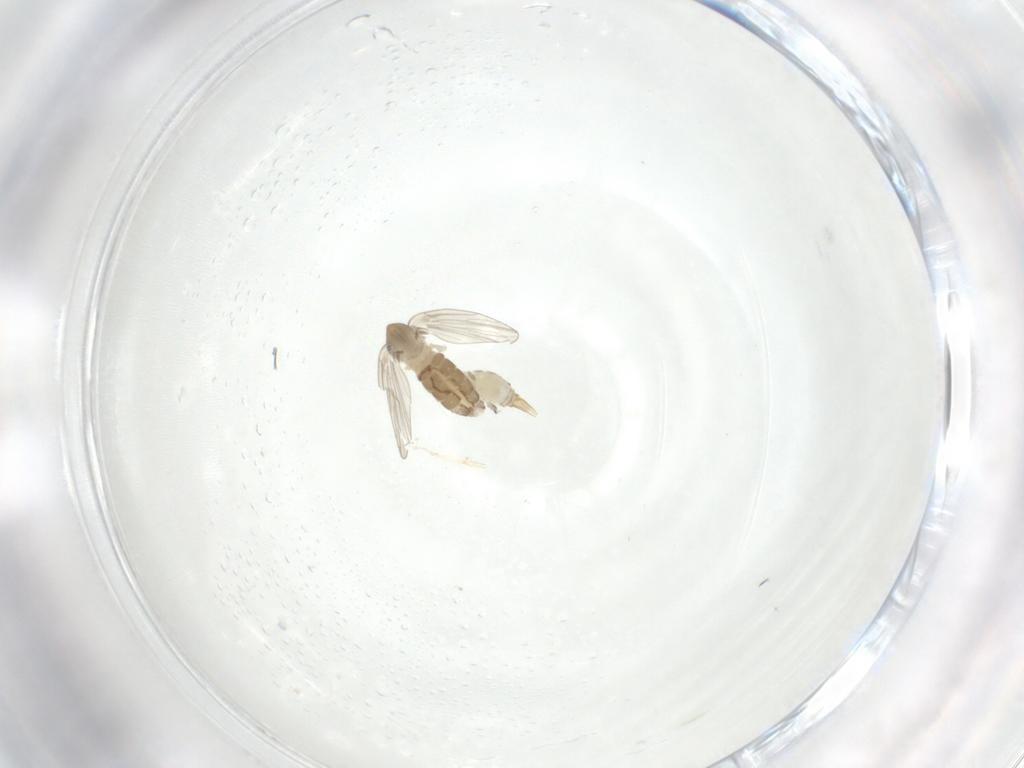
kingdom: Animalia
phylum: Arthropoda
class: Insecta
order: Diptera
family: Cecidomyiidae
